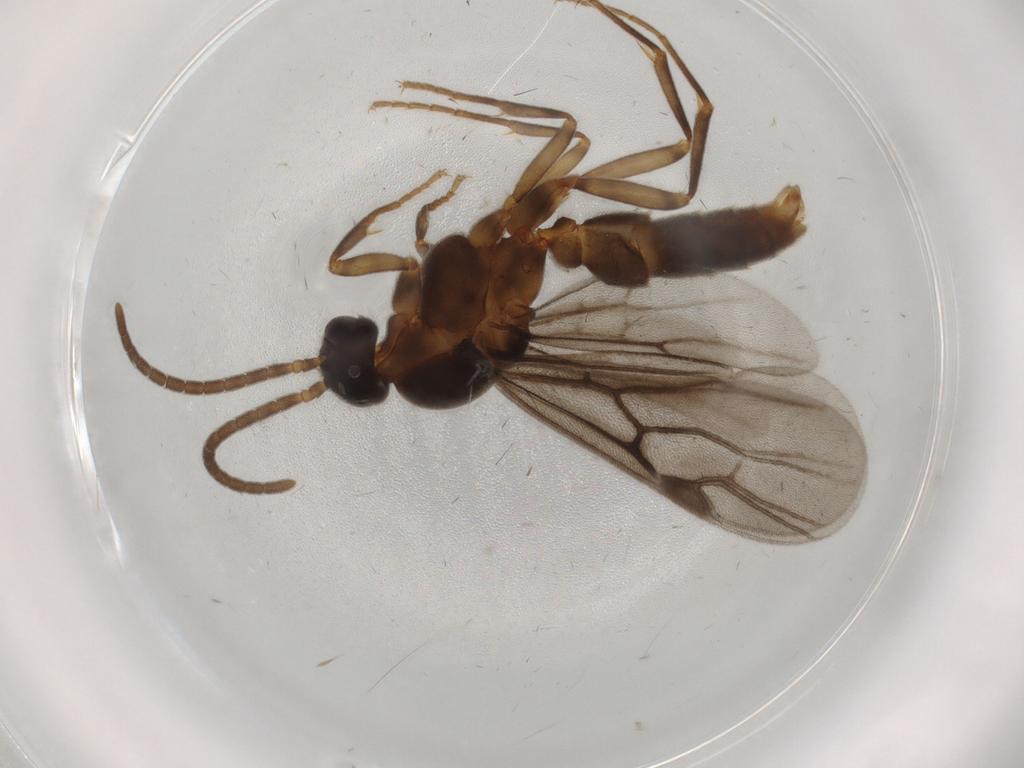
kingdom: Animalia
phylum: Arthropoda
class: Insecta
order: Hymenoptera
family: Formicidae
